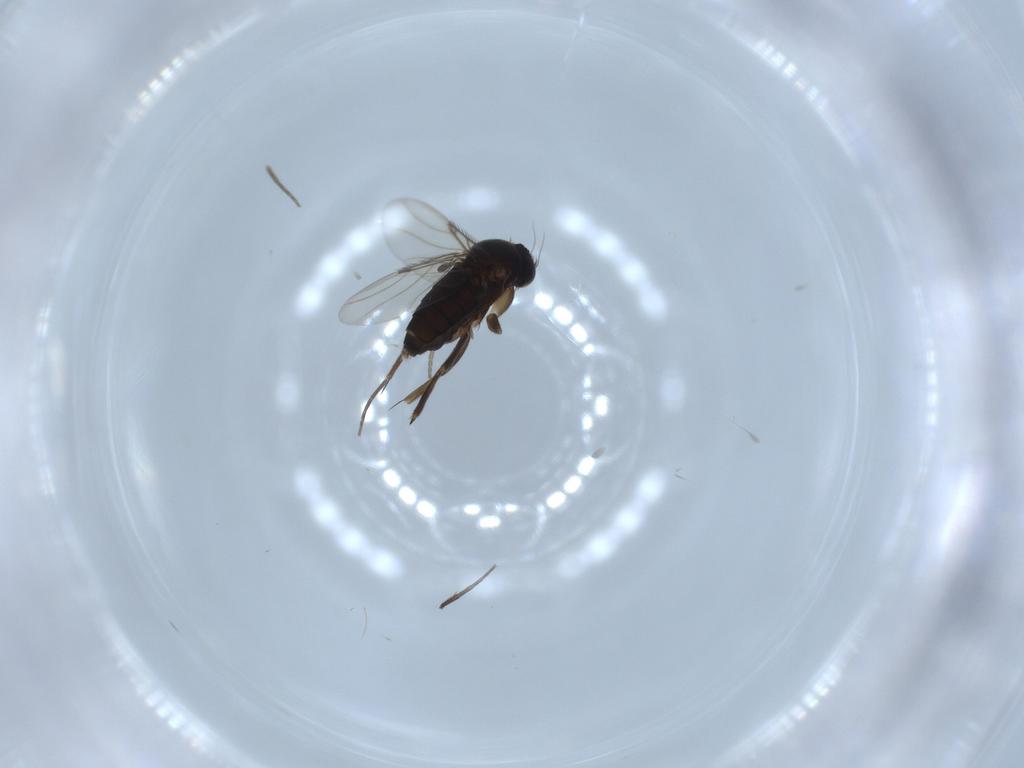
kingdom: Animalia
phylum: Arthropoda
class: Insecta
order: Diptera
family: Phoridae
